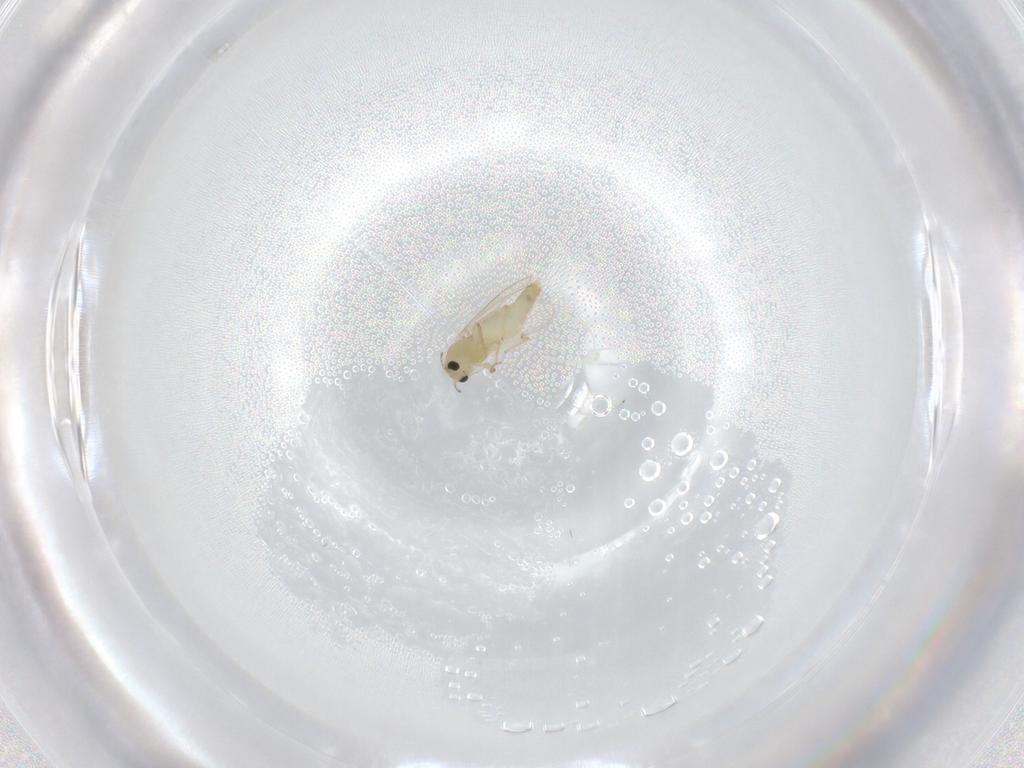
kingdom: Animalia
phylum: Arthropoda
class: Insecta
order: Diptera
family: Chironomidae
